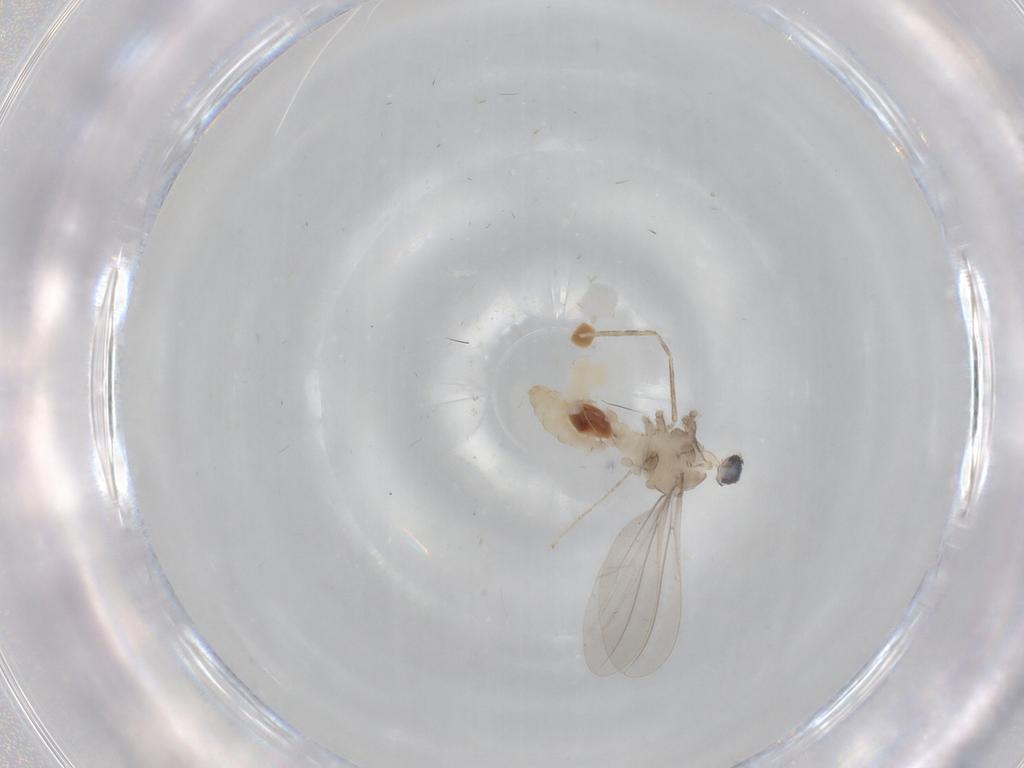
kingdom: Animalia
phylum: Arthropoda
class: Insecta
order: Diptera
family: Cecidomyiidae
